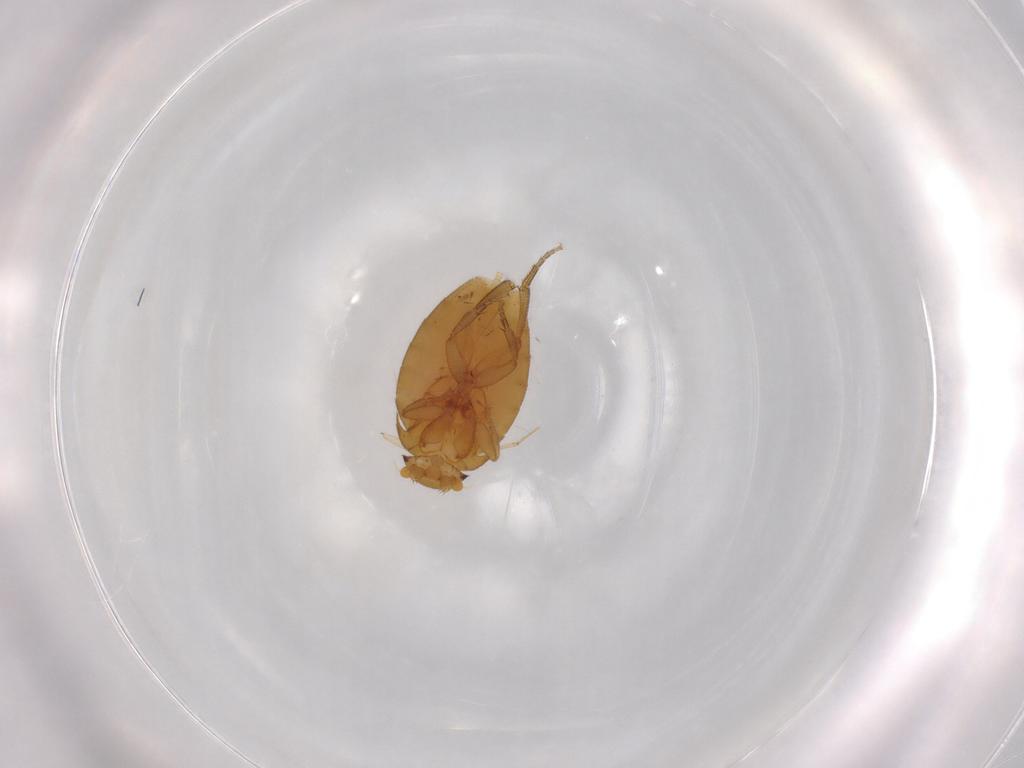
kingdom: Animalia
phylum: Arthropoda
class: Insecta
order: Diptera
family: Psychodidae
